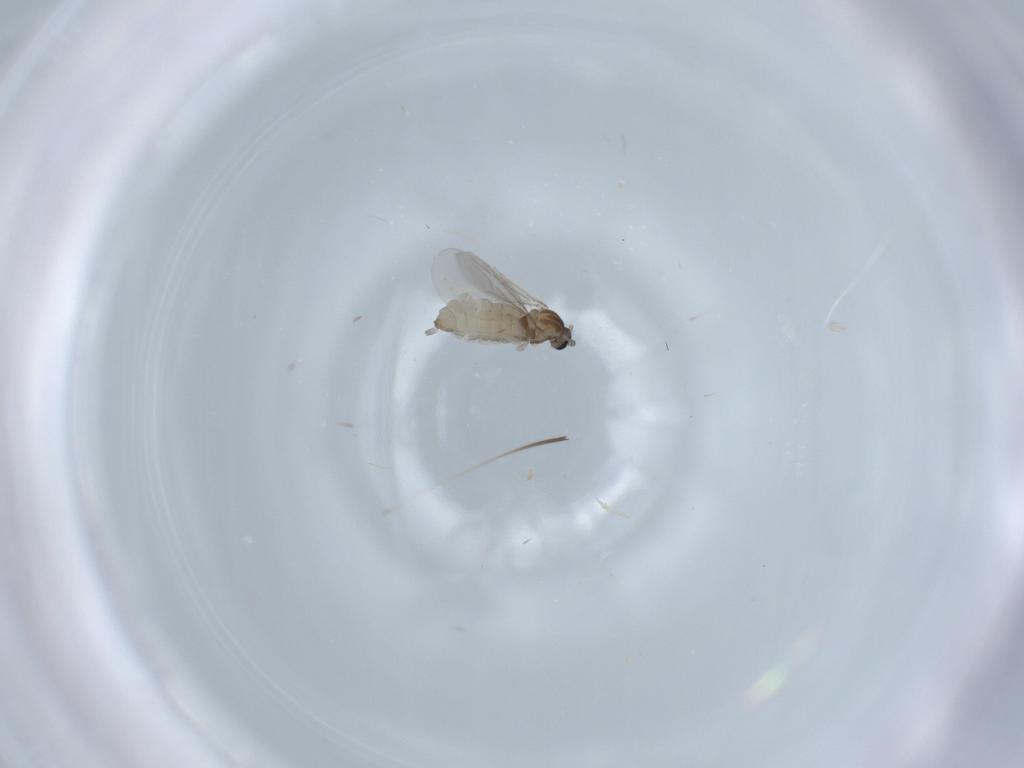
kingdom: Animalia
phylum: Arthropoda
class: Insecta
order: Diptera
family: Cecidomyiidae
